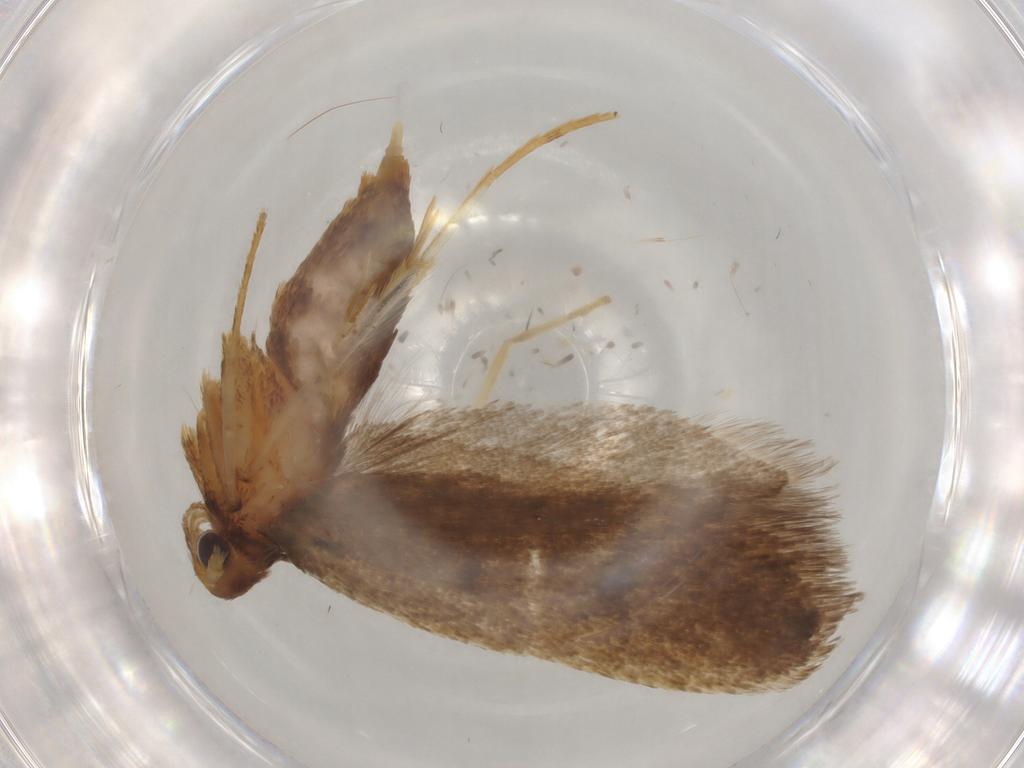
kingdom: Animalia
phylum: Arthropoda
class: Insecta
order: Lepidoptera
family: Lecithoceridae
